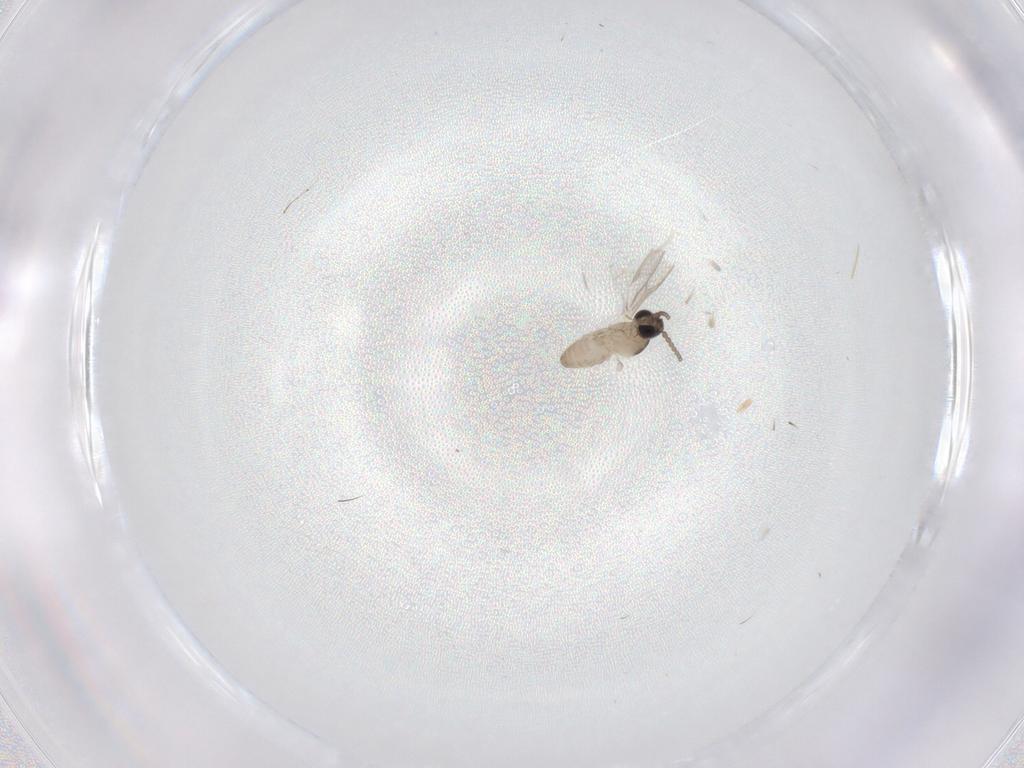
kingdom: Animalia
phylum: Arthropoda
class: Insecta
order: Diptera
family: Cecidomyiidae
